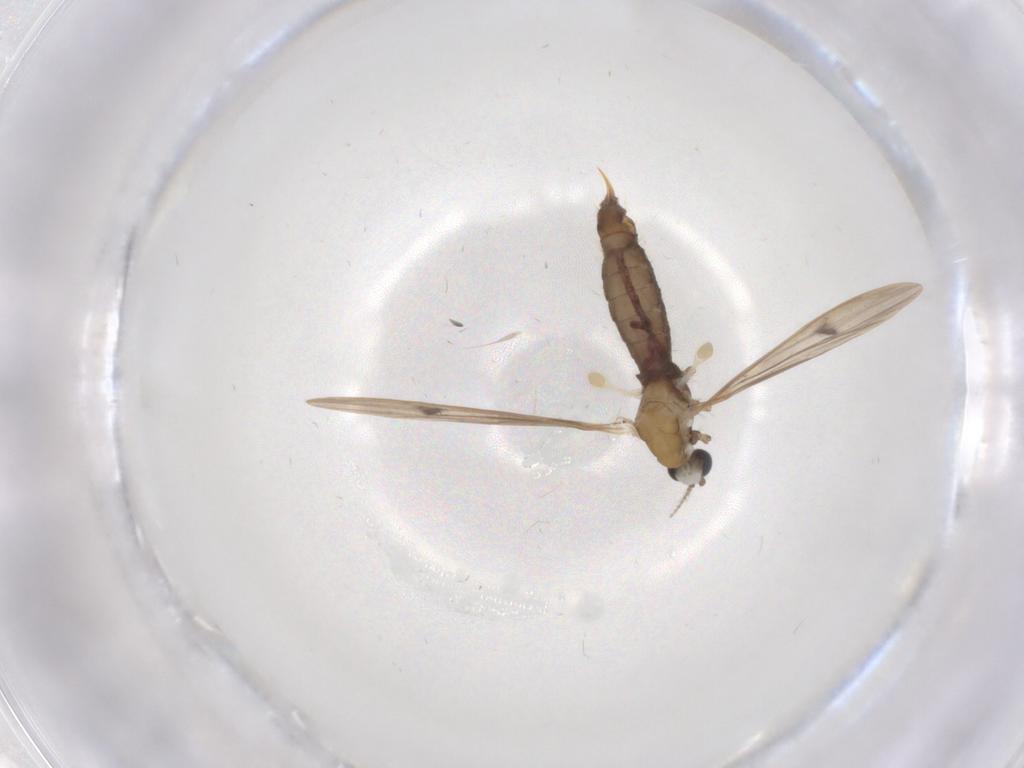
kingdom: Animalia
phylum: Arthropoda
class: Insecta
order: Diptera
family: Limoniidae
